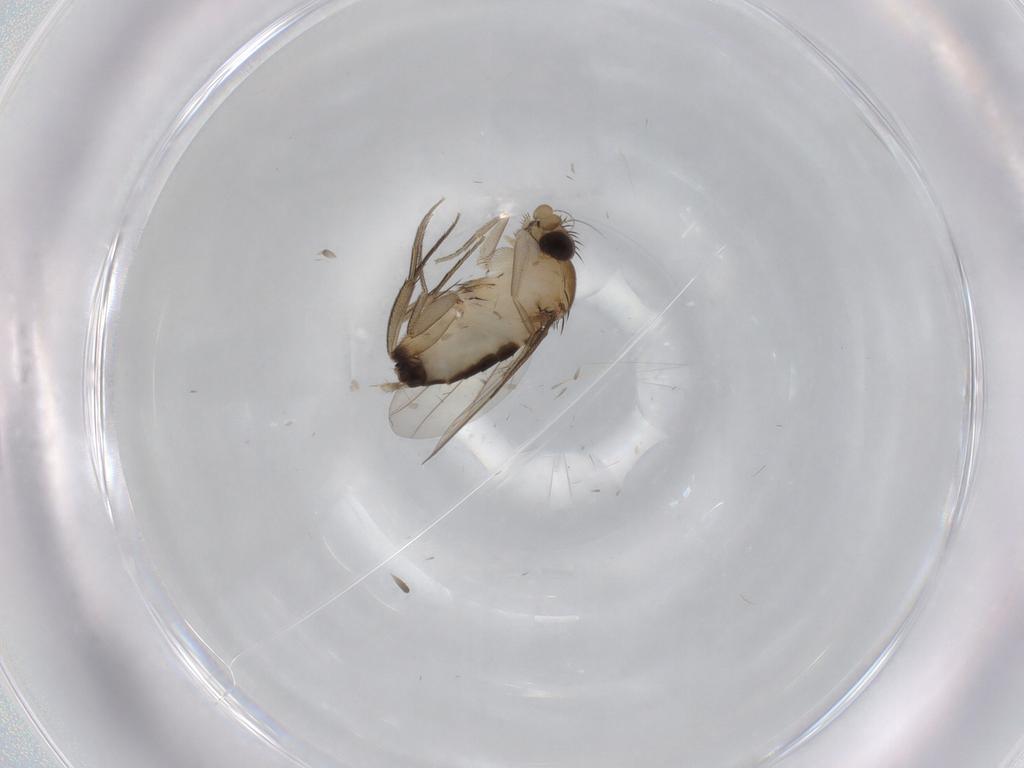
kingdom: Animalia
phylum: Arthropoda
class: Insecta
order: Diptera
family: Phoridae
